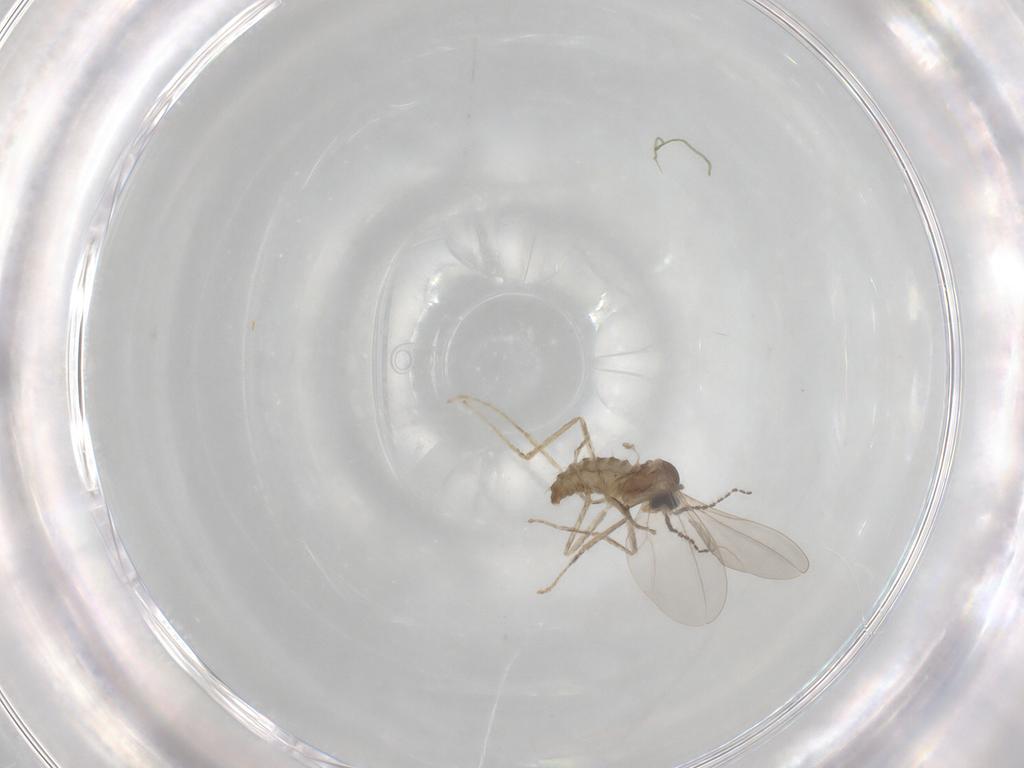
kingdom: Animalia
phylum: Arthropoda
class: Insecta
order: Diptera
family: Cecidomyiidae
